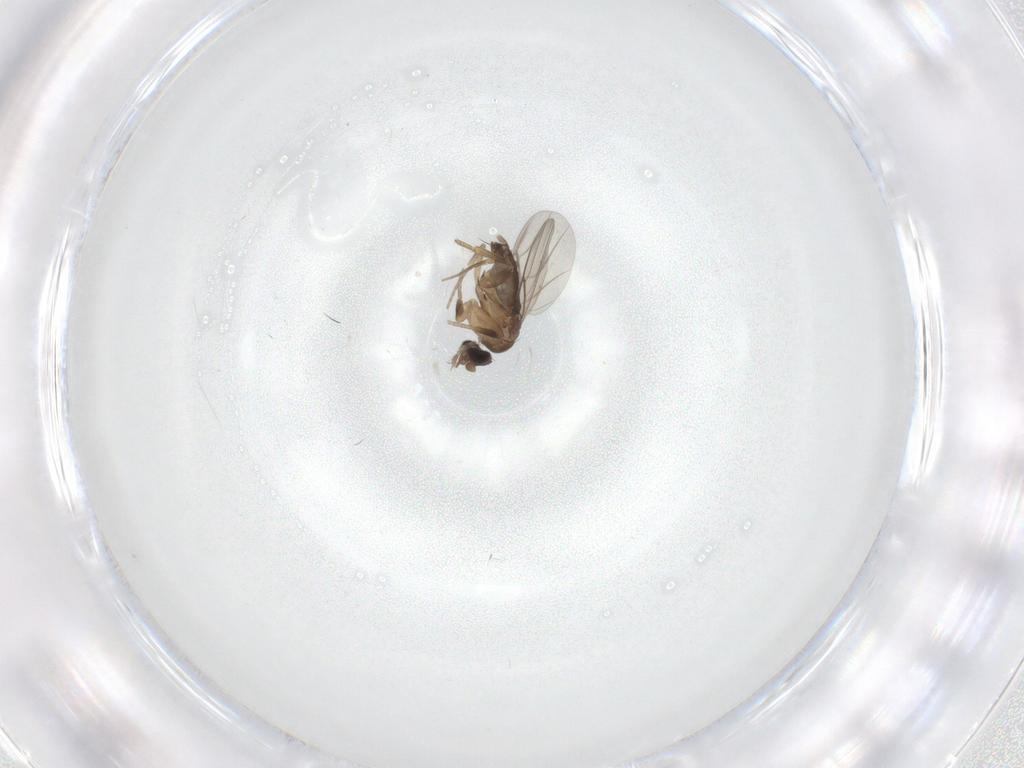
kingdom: Animalia
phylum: Arthropoda
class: Insecta
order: Diptera
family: Phoridae
